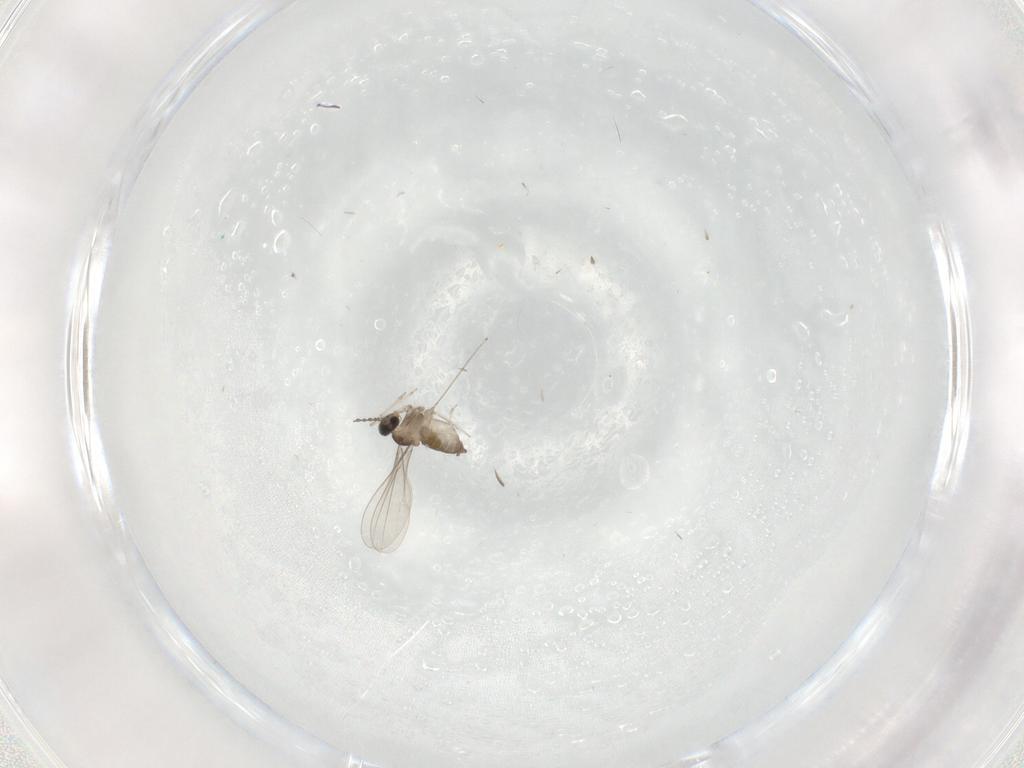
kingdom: Animalia
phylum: Arthropoda
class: Insecta
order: Diptera
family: Cecidomyiidae
